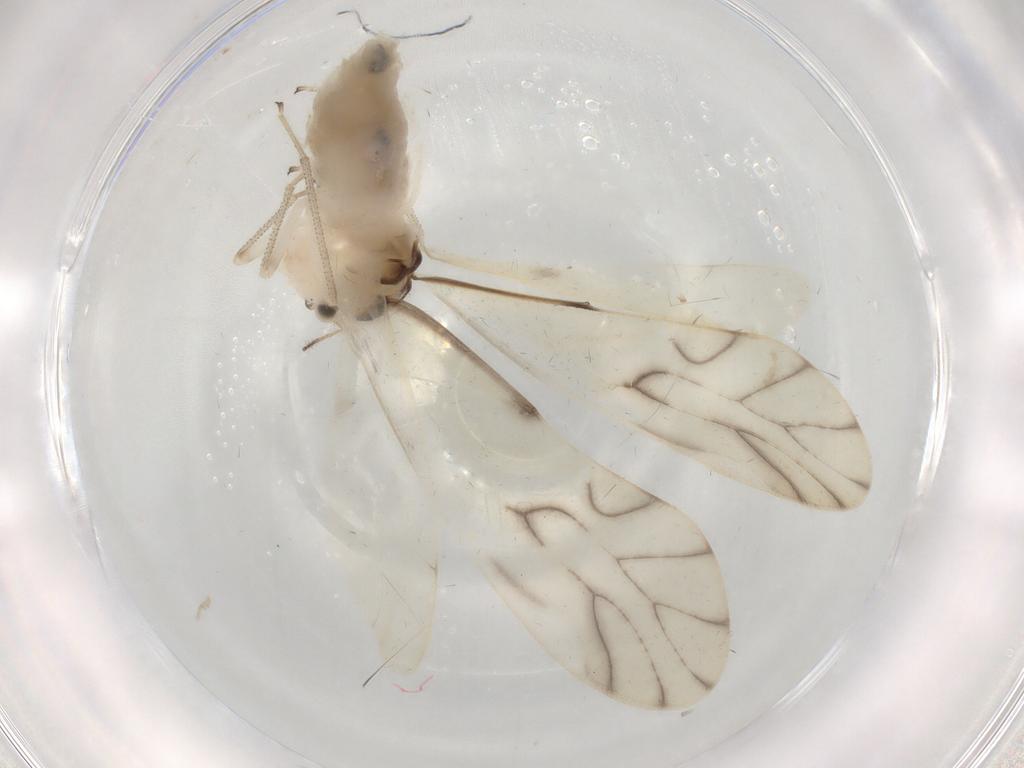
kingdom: Animalia
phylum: Arthropoda
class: Insecta
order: Psocodea
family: Caeciliusidae
